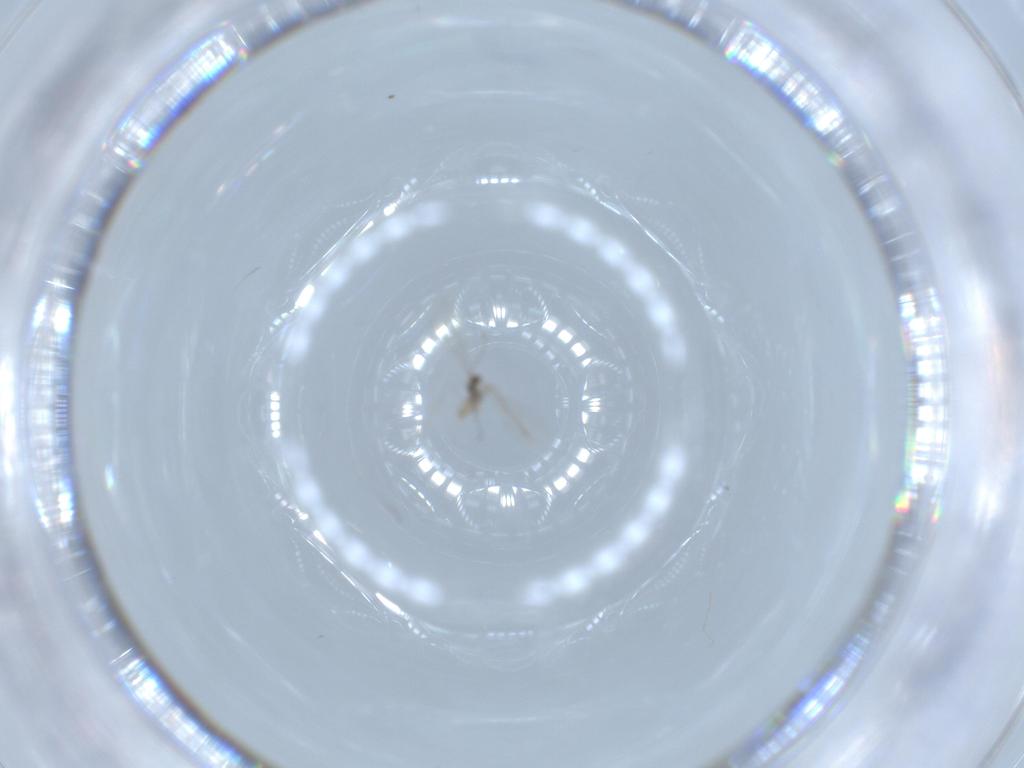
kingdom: Animalia
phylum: Arthropoda
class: Insecta
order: Diptera
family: Cecidomyiidae
